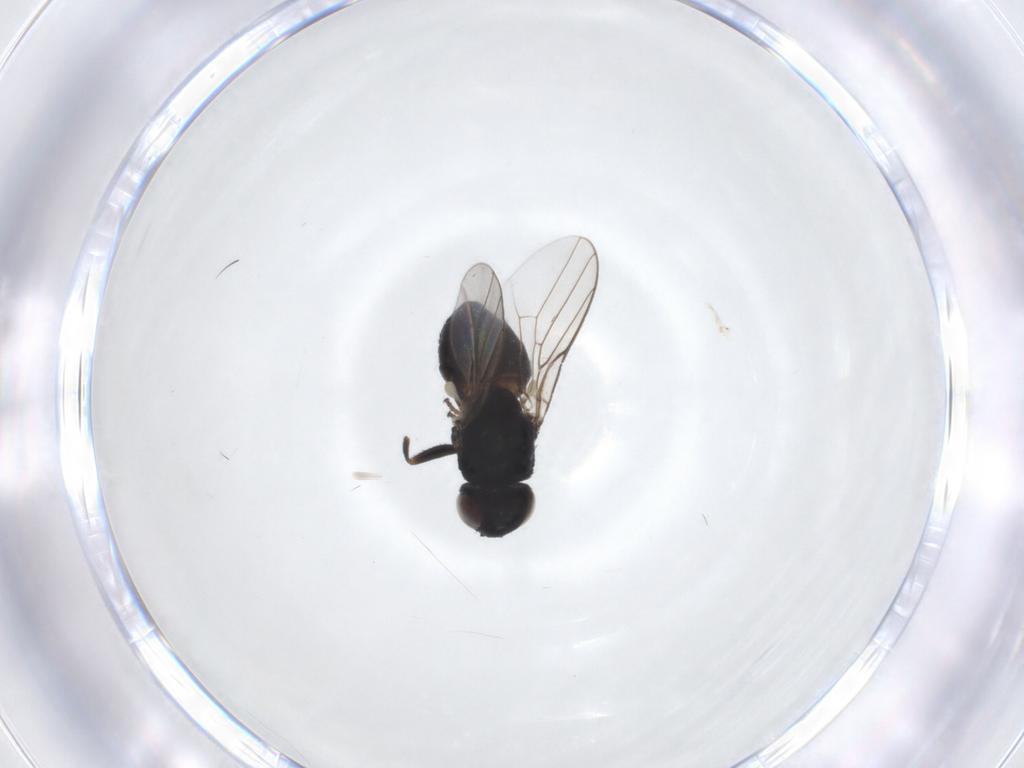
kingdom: Animalia
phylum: Arthropoda
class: Insecta
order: Diptera
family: Chloropidae
